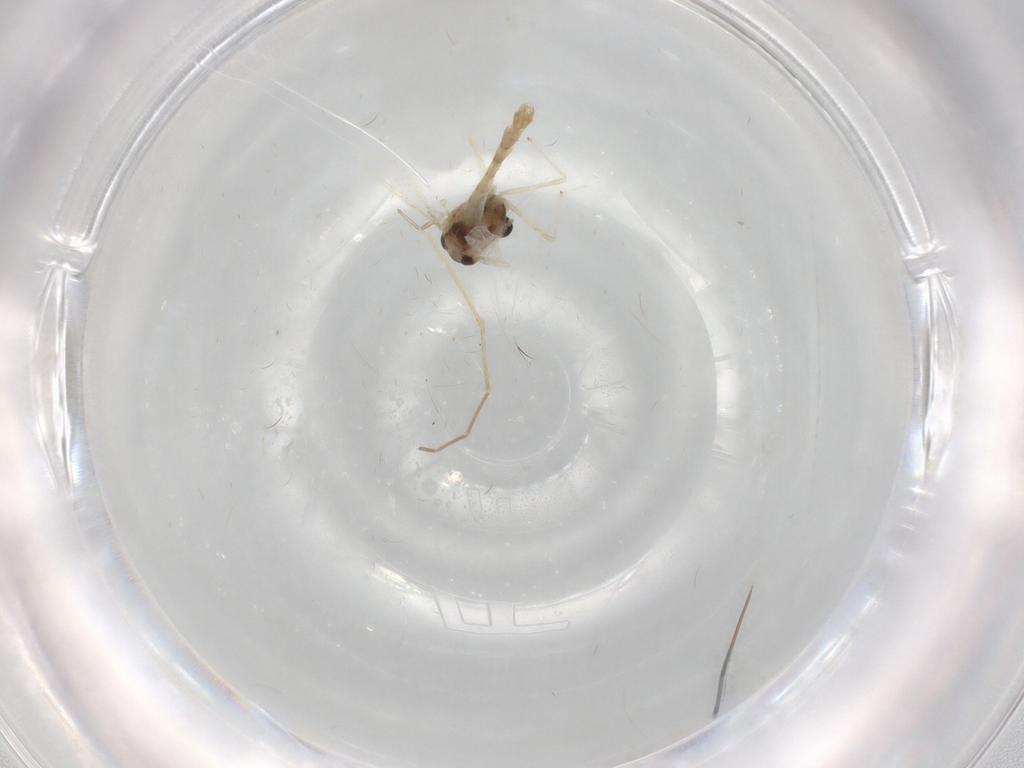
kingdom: Animalia
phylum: Arthropoda
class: Insecta
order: Diptera
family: Chironomidae
